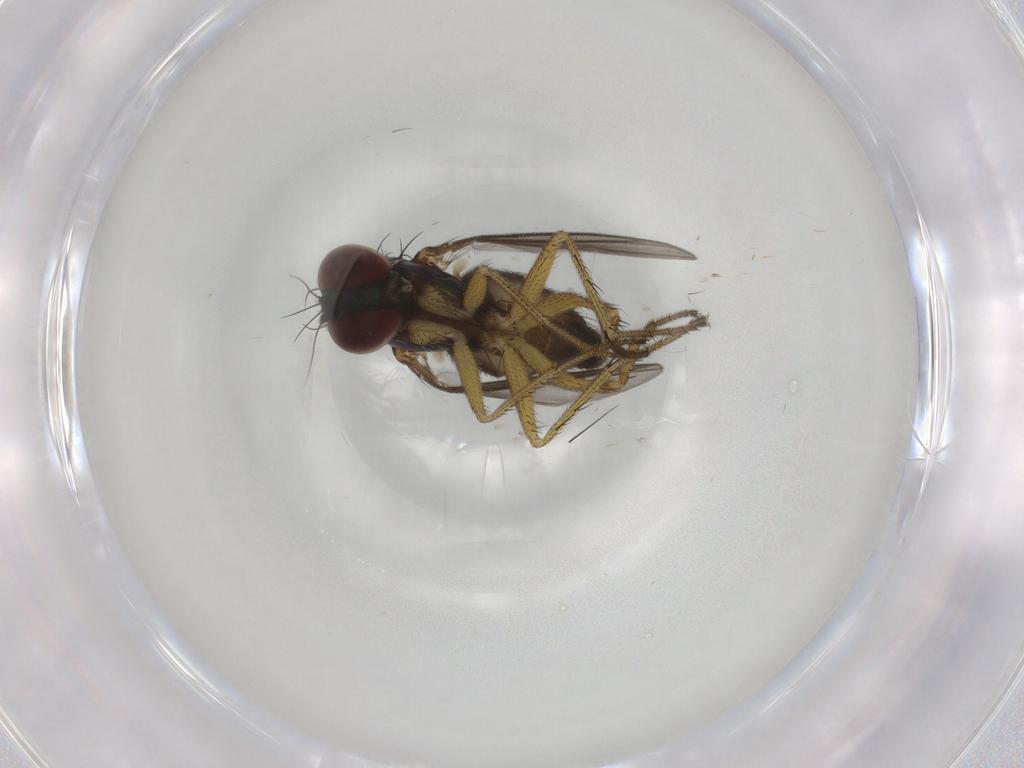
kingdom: Animalia
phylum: Arthropoda
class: Insecta
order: Diptera
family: Dolichopodidae
